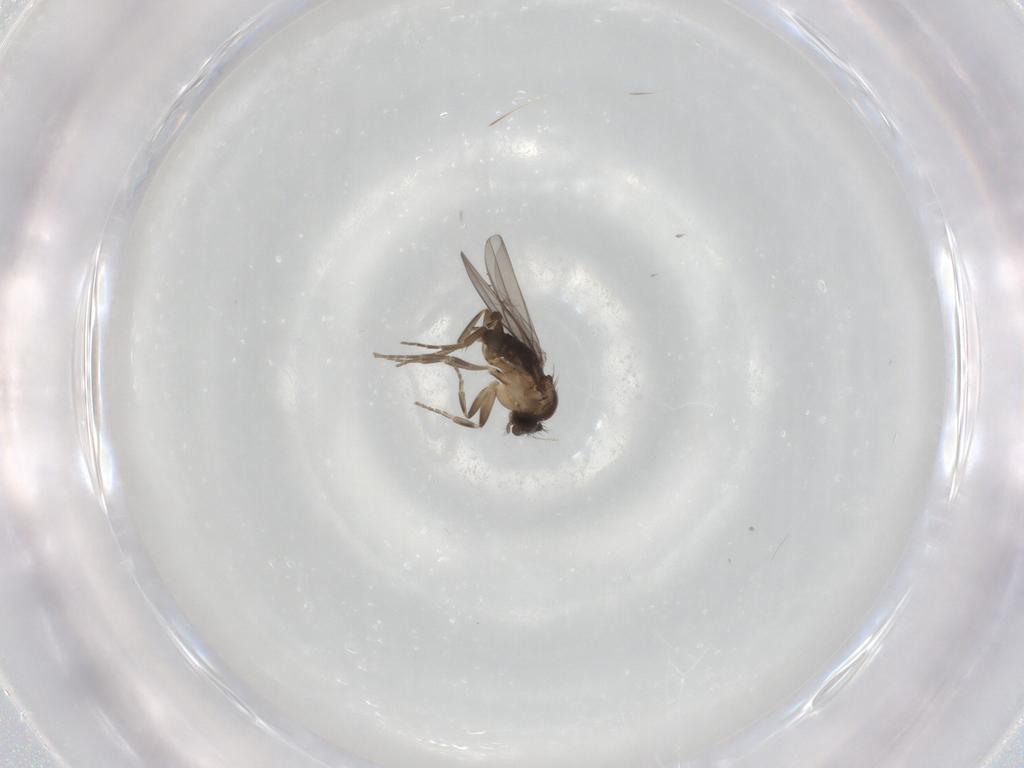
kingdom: Animalia
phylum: Arthropoda
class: Insecta
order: Diptera
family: Phoridae
